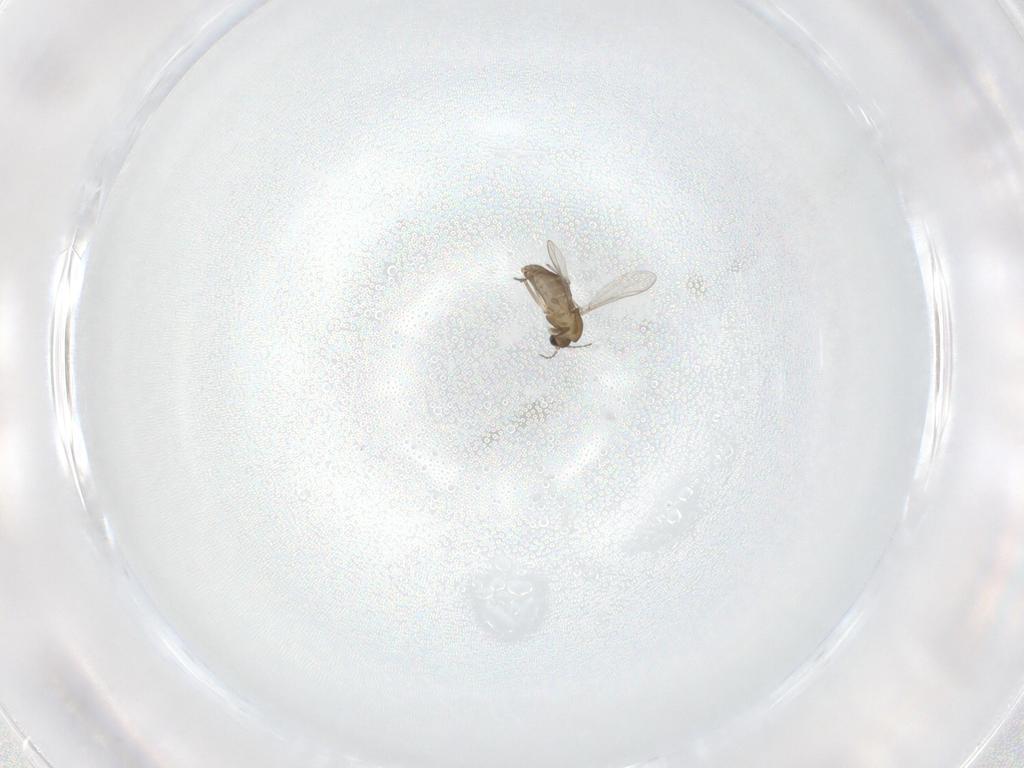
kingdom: Animalia
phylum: Arthropoda
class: Insecta
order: Diptera
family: Chironomidae
